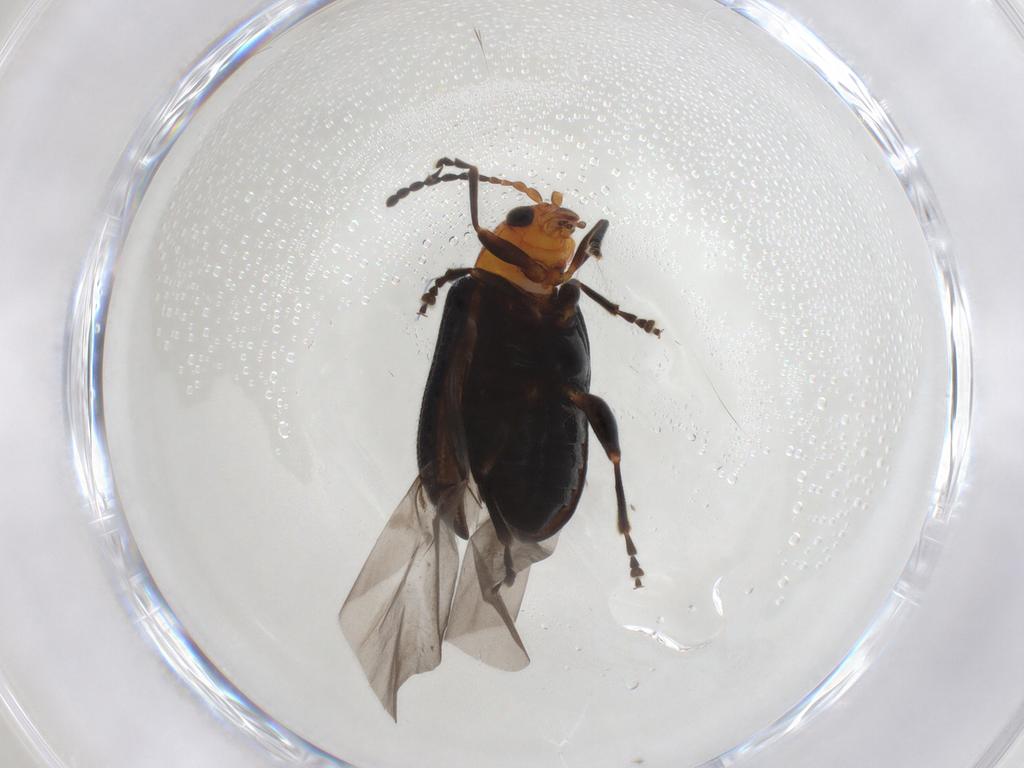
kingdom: Animalia
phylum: Arthropoda
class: Insecta
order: Coleoptera
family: Chrysomelidae
